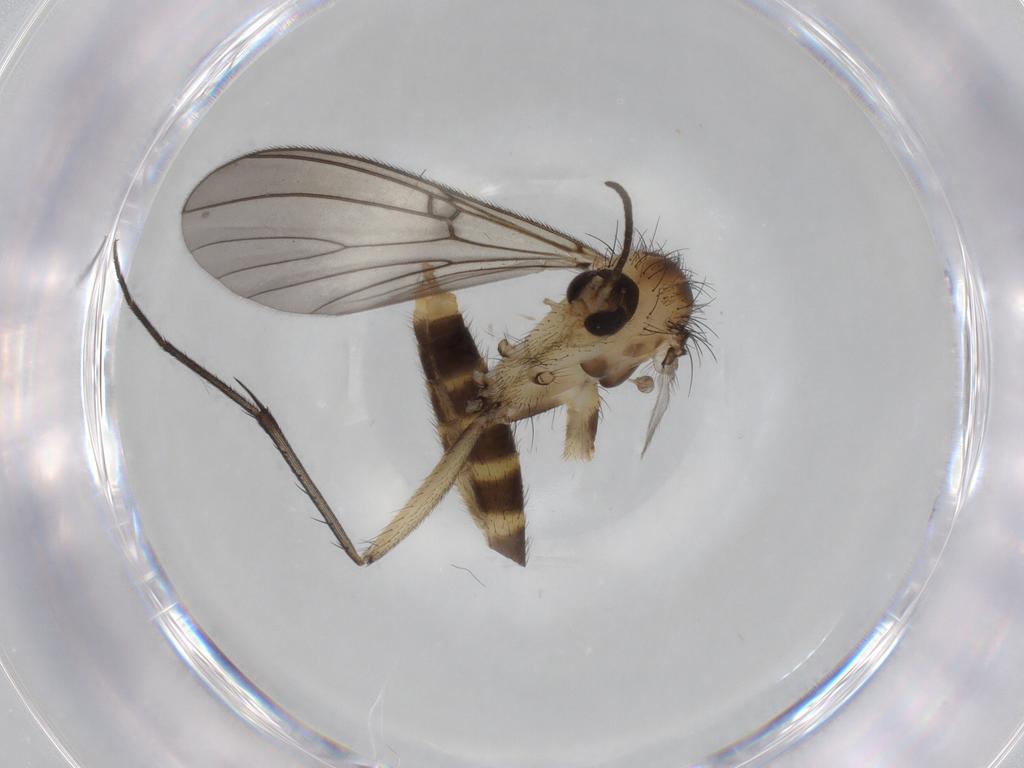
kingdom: Animalia
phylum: Arthropoda
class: Insecta
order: Diptera
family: Mycetophilidae
